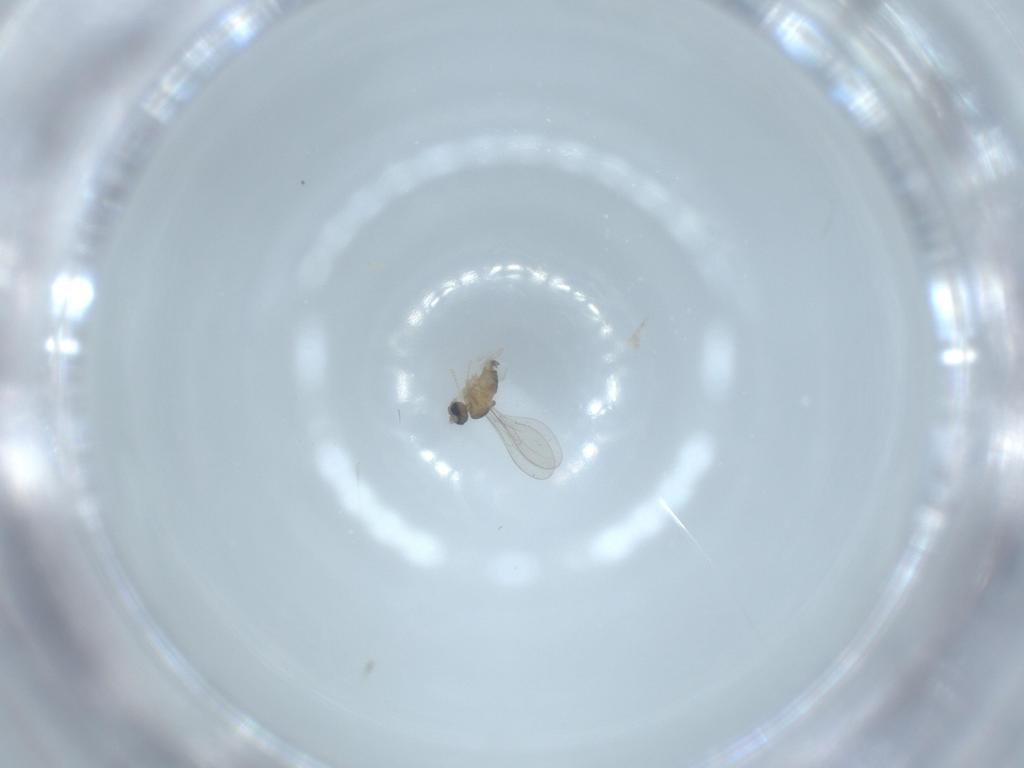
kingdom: Animalia
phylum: Arthropoda
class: Insecta
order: Diptera
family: Cecidomyiidae
